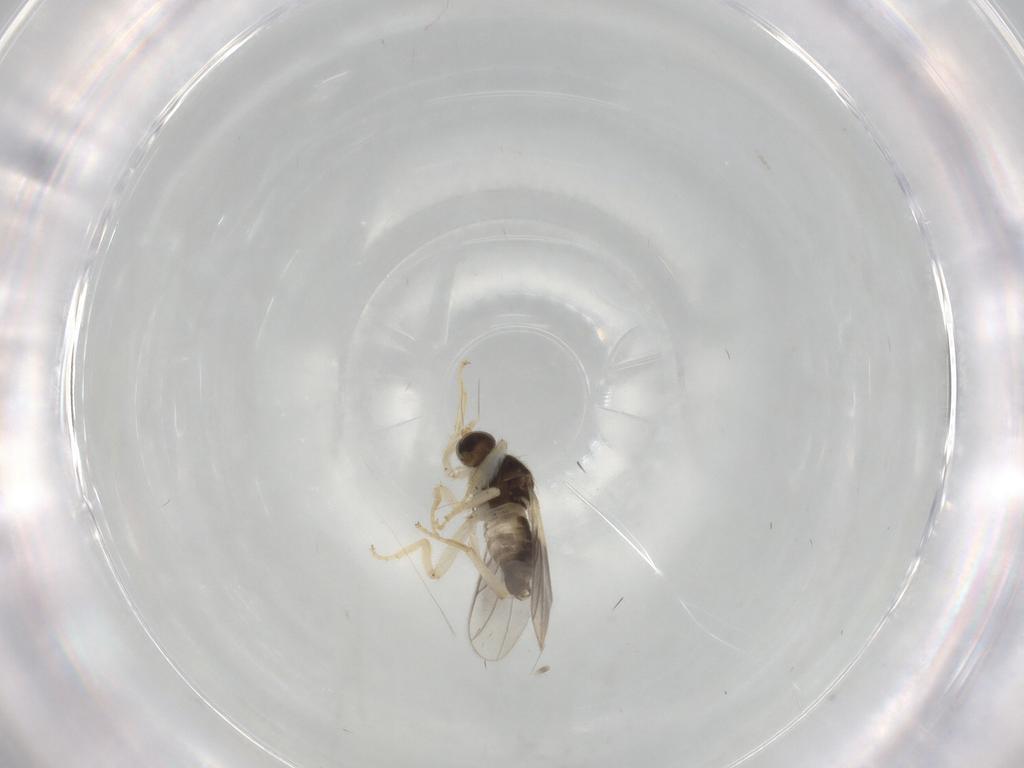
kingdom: Animalia
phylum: Arthropoda
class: Insecta
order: Diptera
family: Hybotidae
